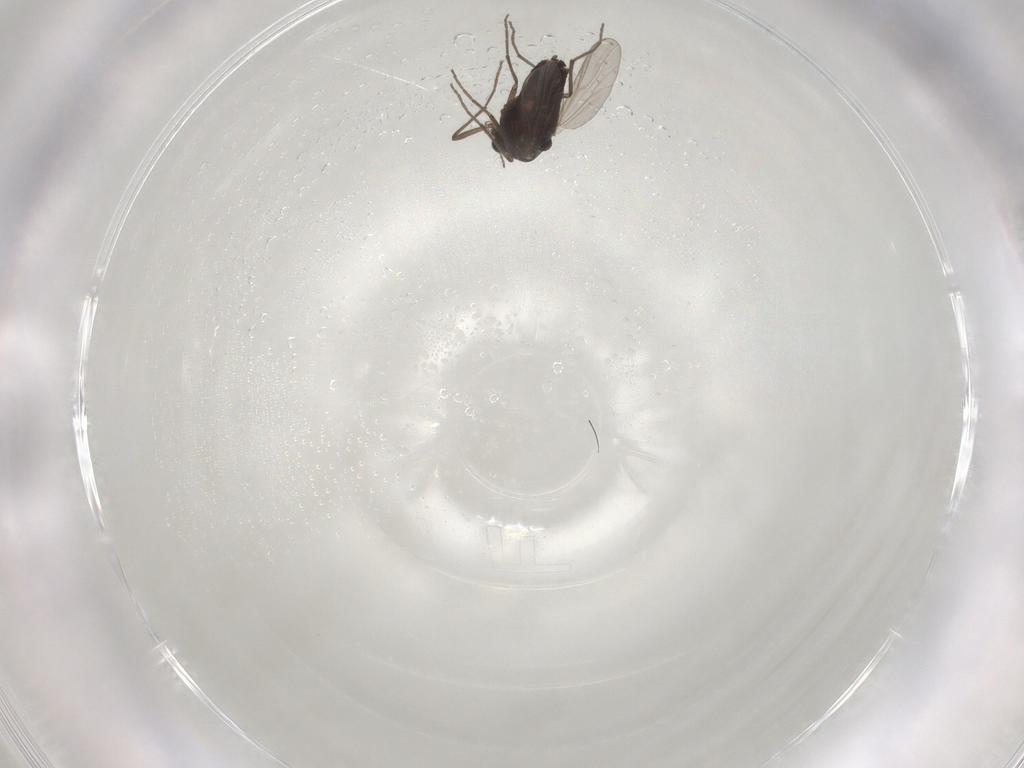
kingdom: Animalia
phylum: Arthropoda
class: Insecta
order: Diptera
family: Chironomidae
